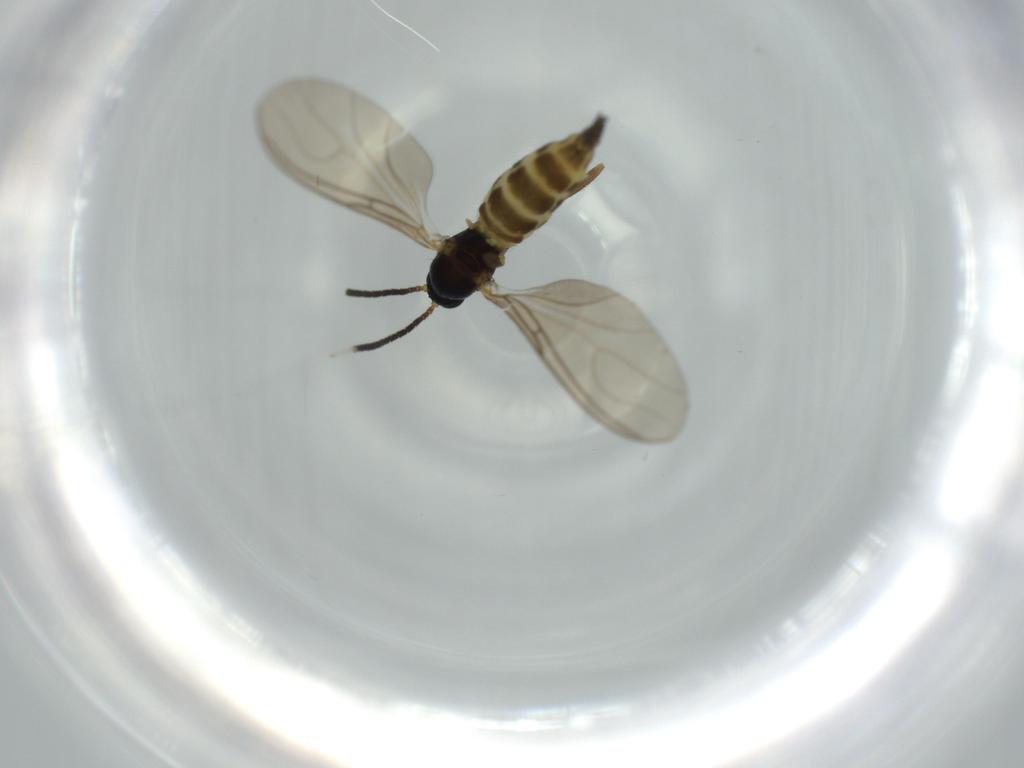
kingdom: Animalia
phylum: Arthropoda
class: Insecta
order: Diptera
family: Sciaridae
